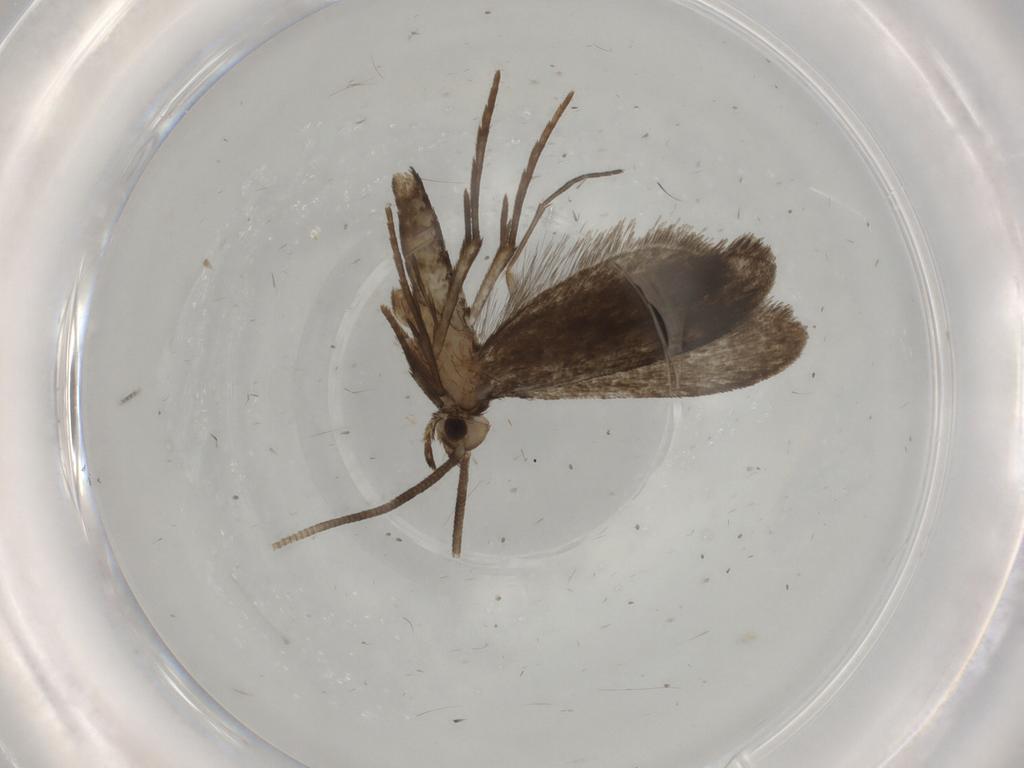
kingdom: Animalia
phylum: Arthropoda
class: Insecta
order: Lepidoptera
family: Nymphalidae
